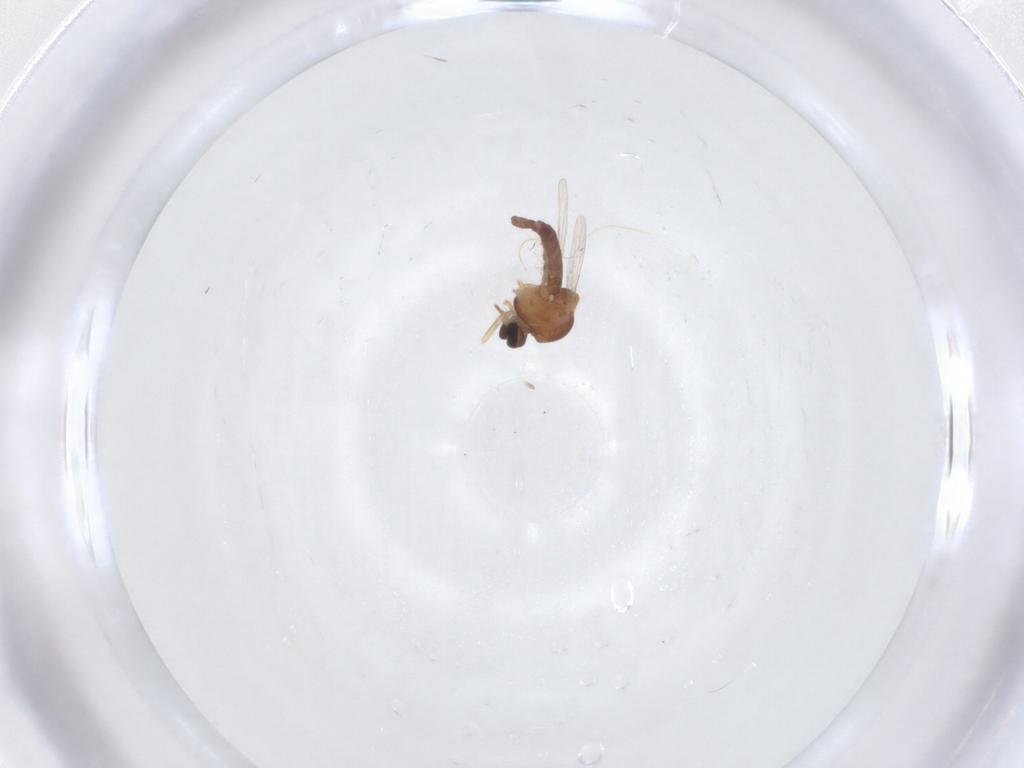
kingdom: Animalia
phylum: Arthropoda
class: Insecta
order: Diptera
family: Ceratopogonidae
